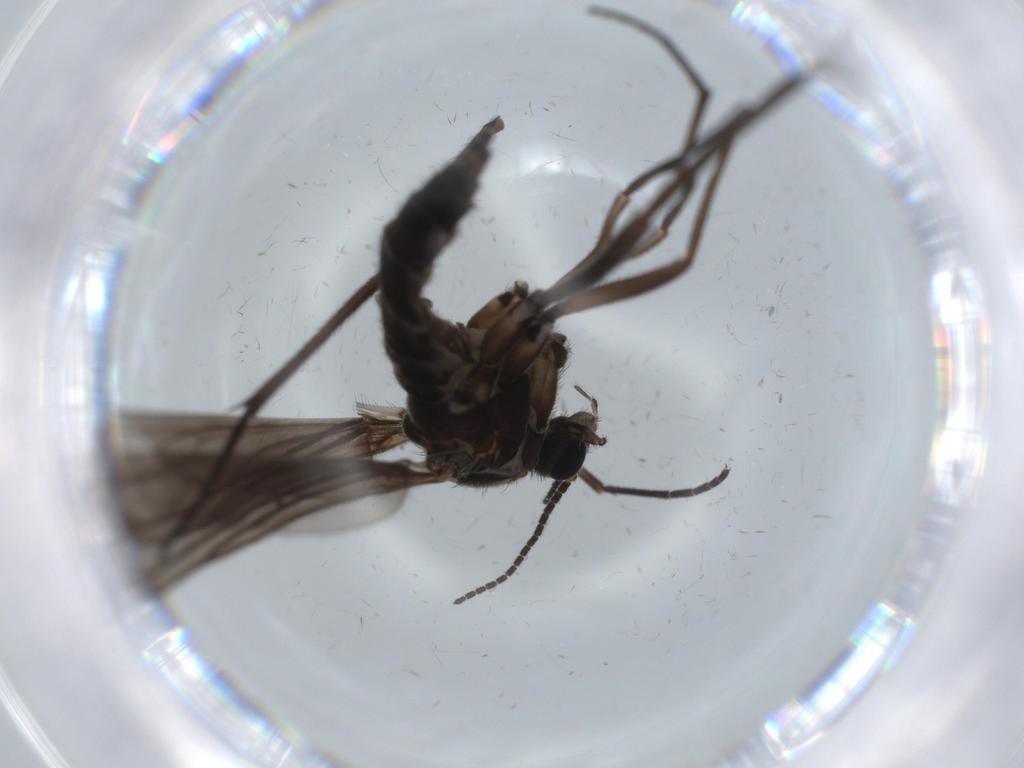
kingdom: Animalia
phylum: Arthropoda
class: Insecta
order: Diptera
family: Sciaridae
